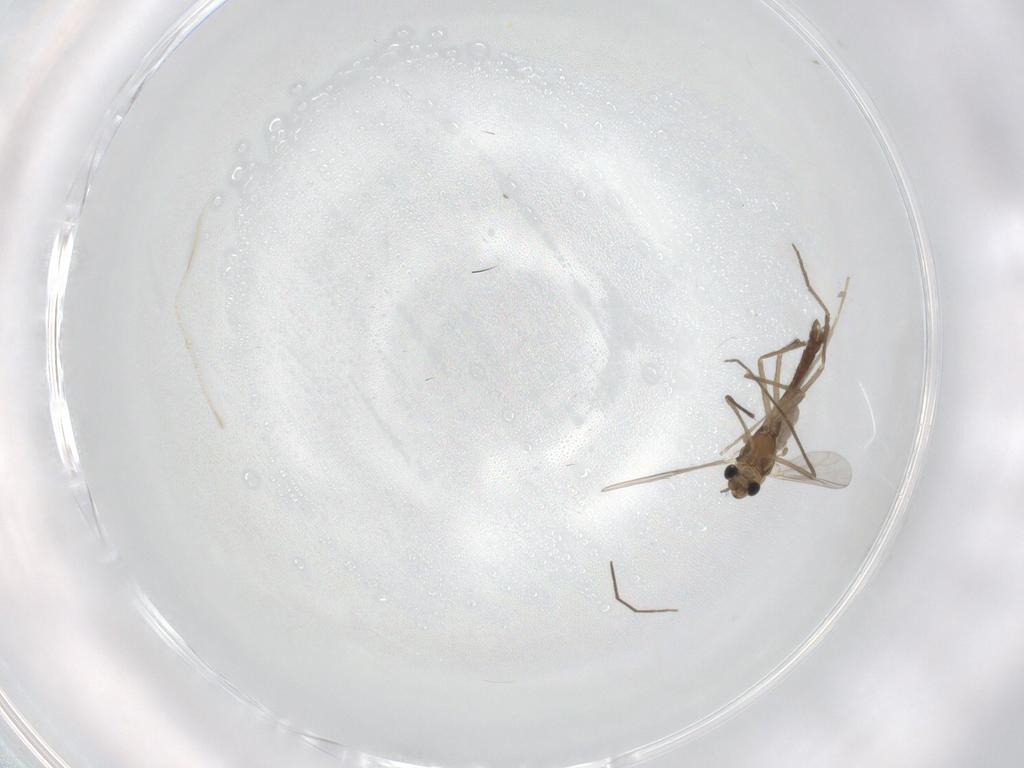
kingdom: Animalia
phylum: Arthropoda
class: Insecta
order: Diptera
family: Chironomidae
